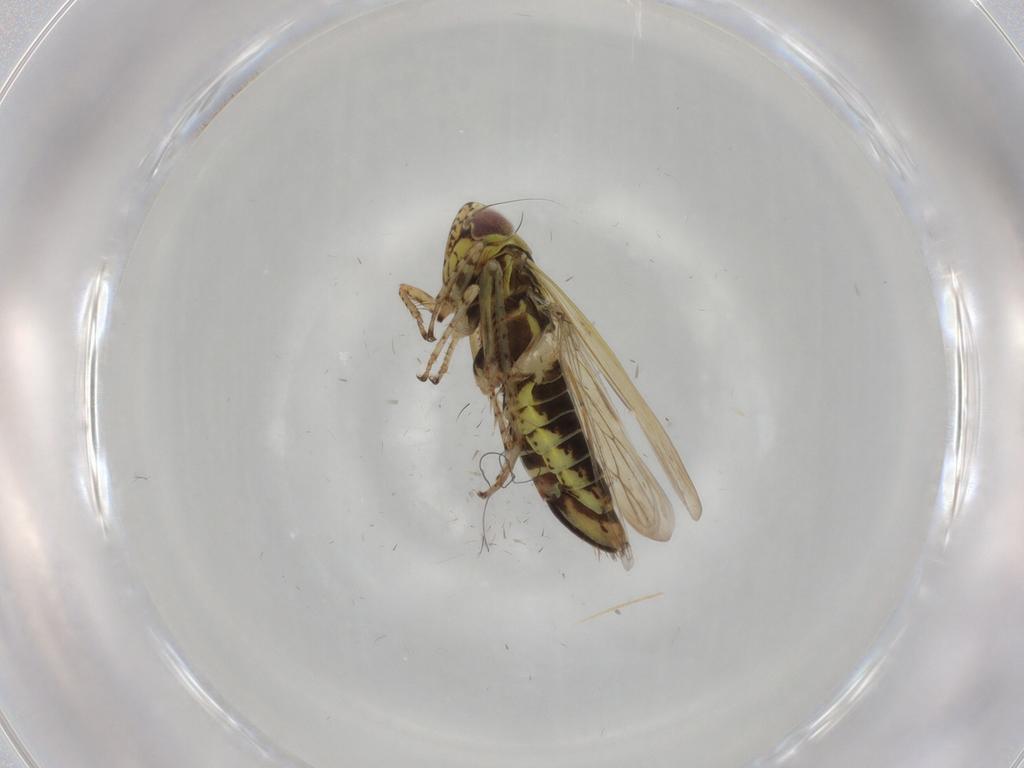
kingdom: Animalia
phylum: Arthropoda
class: Insecta
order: Hemiptera
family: Cicadellidae
